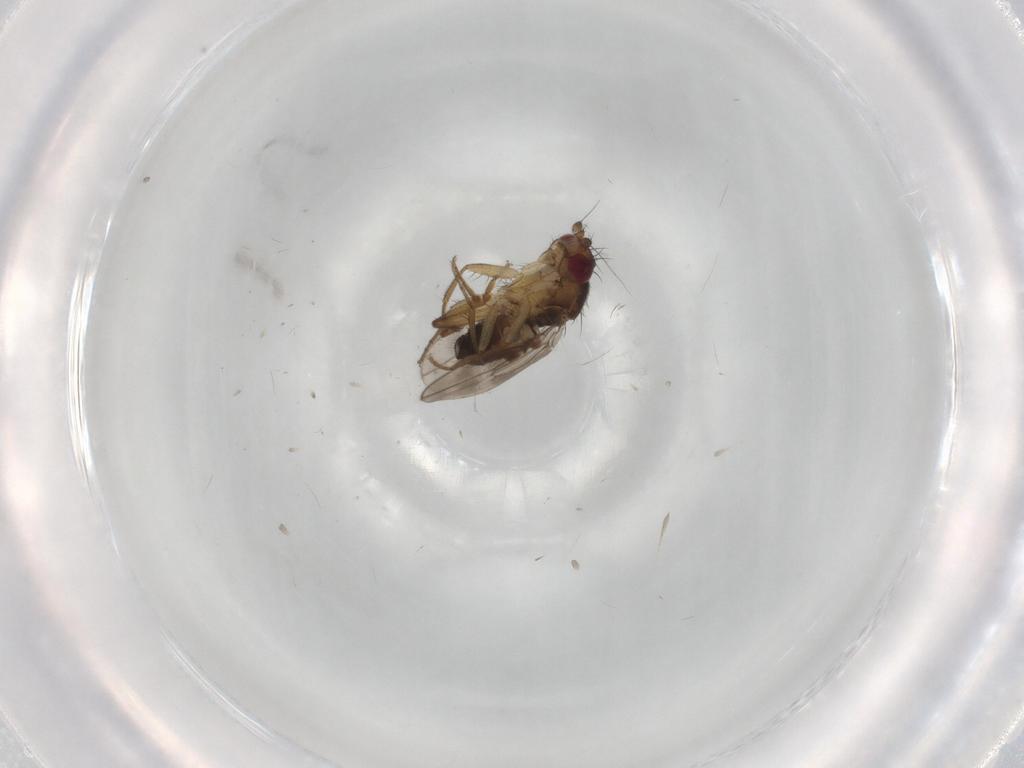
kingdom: Animalia
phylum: Arthropoda
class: Insecta
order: Diptera
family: Sphaeroceridae
